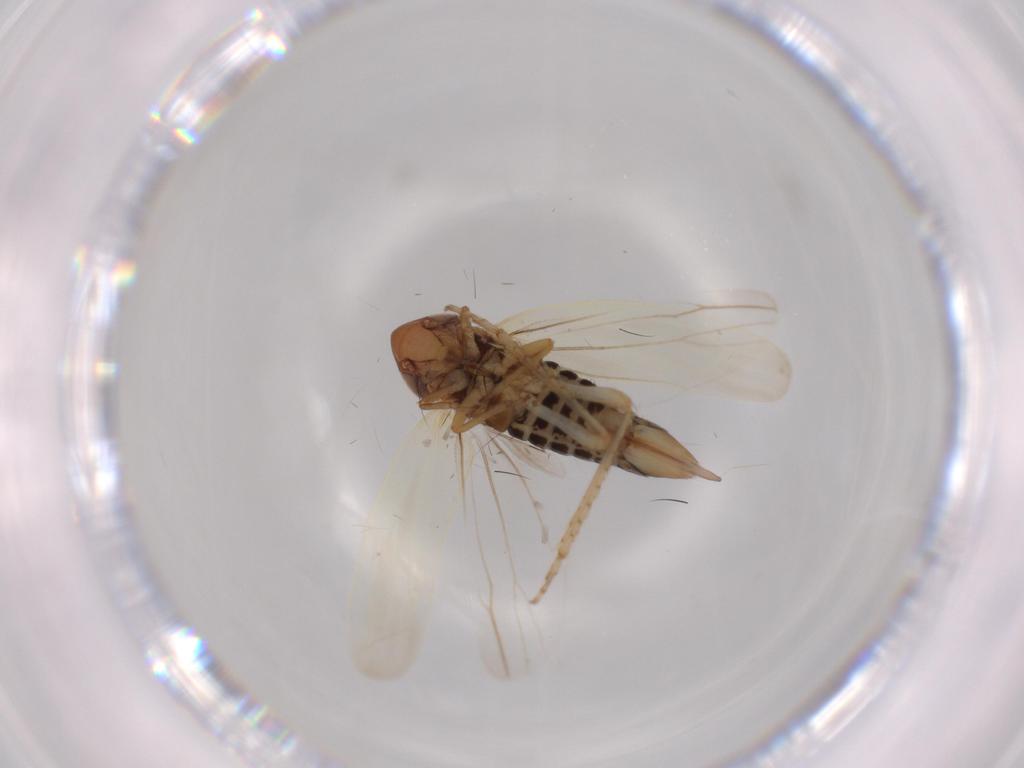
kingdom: Animalia
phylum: Arthropoda
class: Insecta
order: Hemiptera
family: Cicadellidae
